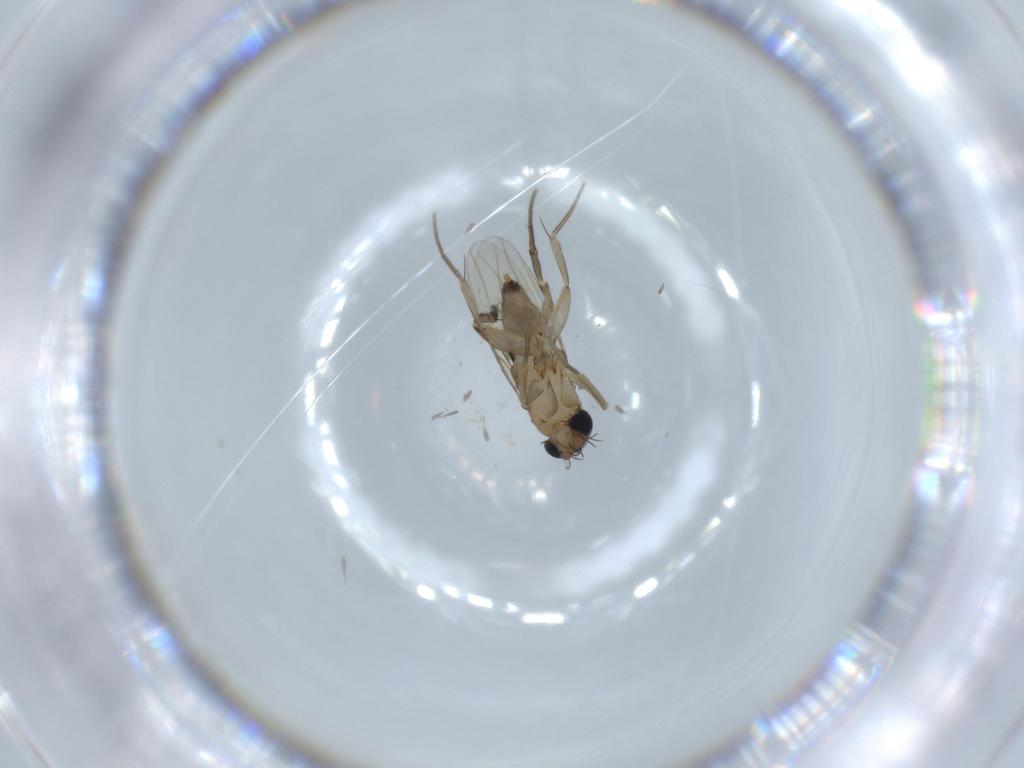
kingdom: Animalia
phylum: Arthropoda
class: Insecta
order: Diptera
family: Phoridae
